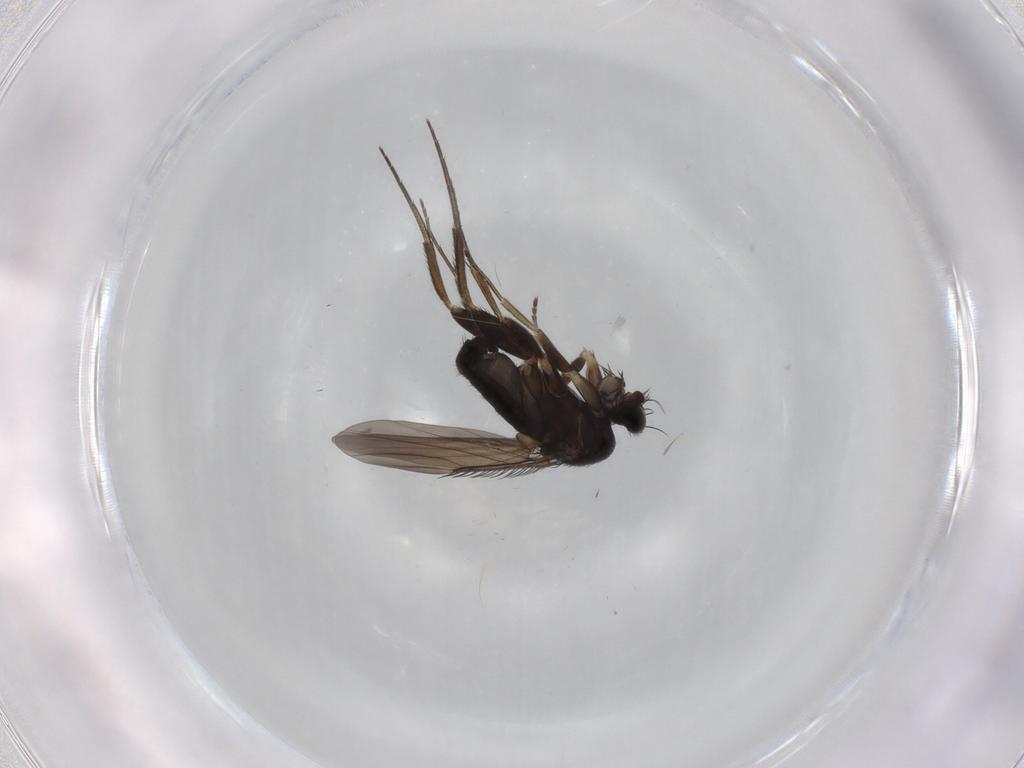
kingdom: Animalia
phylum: Arthropoda
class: Insecta
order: Diptera
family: Phoridae
